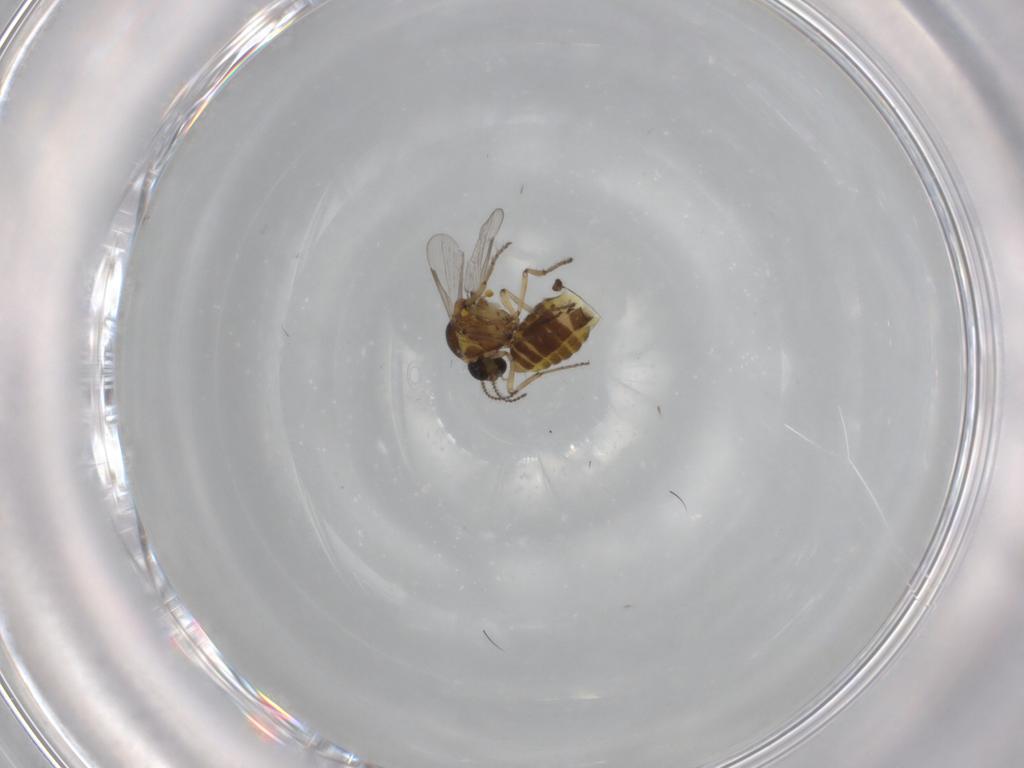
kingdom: Animalia
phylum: Arthropoda
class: Insecta
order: Diptera
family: Ceratopogonidae
